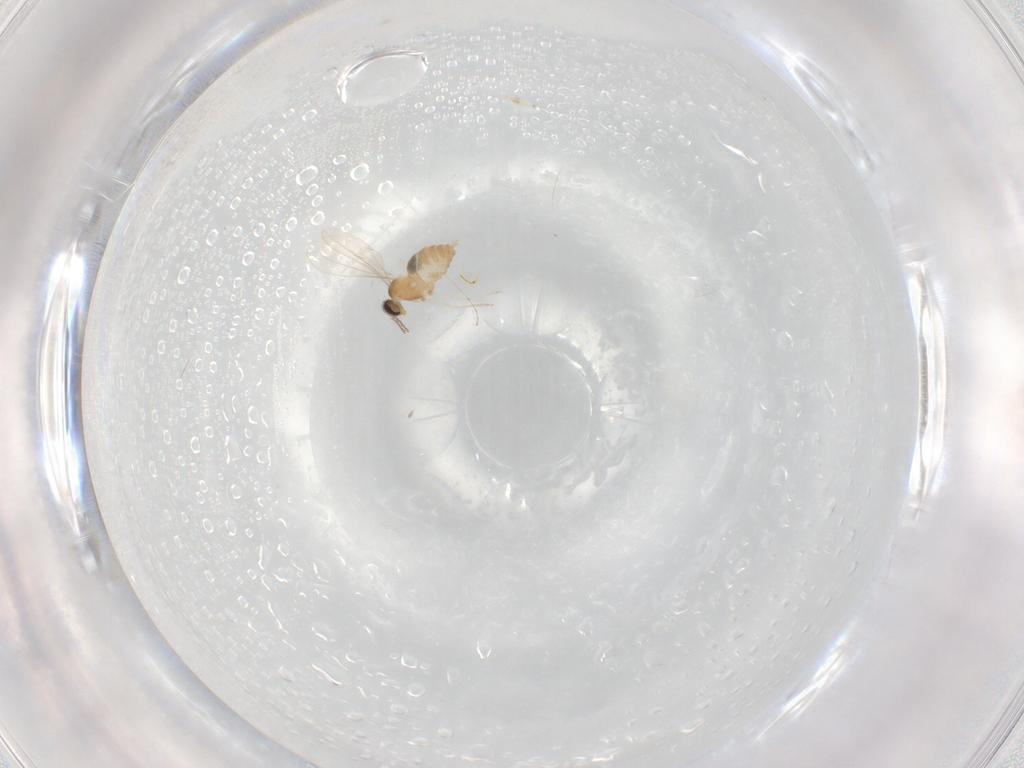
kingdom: Animalia
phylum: Arthropoda
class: Insecta
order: Diptera
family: Cecidomyiidae
